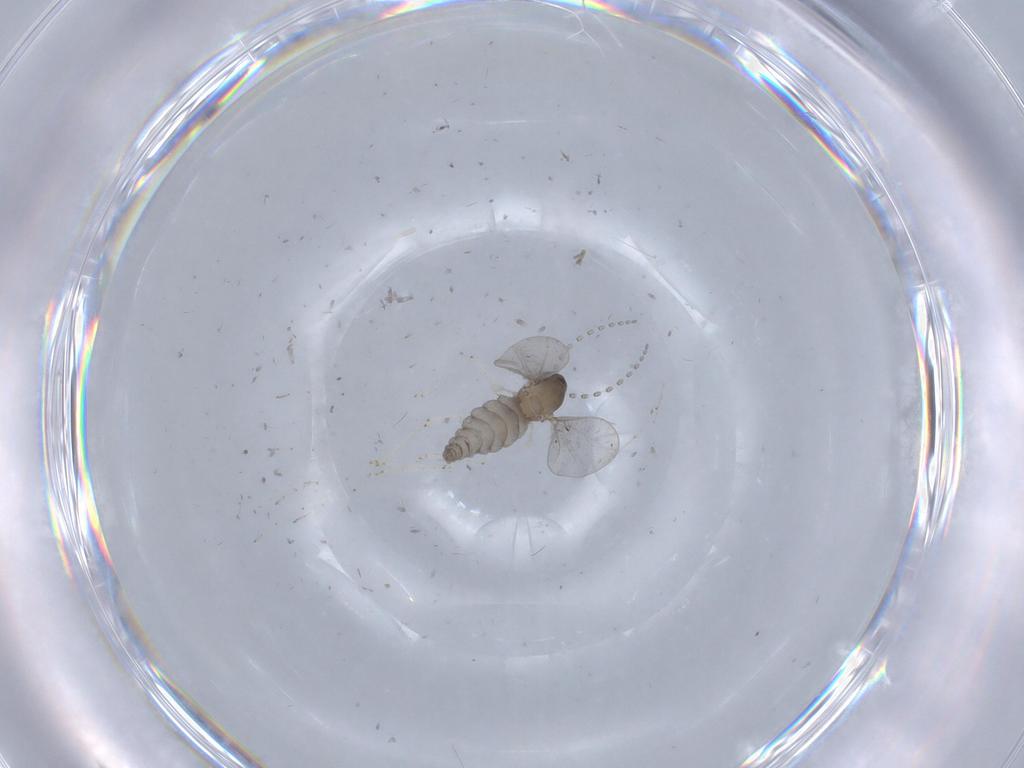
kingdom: Animalia
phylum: Arthropoda
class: Insecta
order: Diptera
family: Cecidomyiidae
